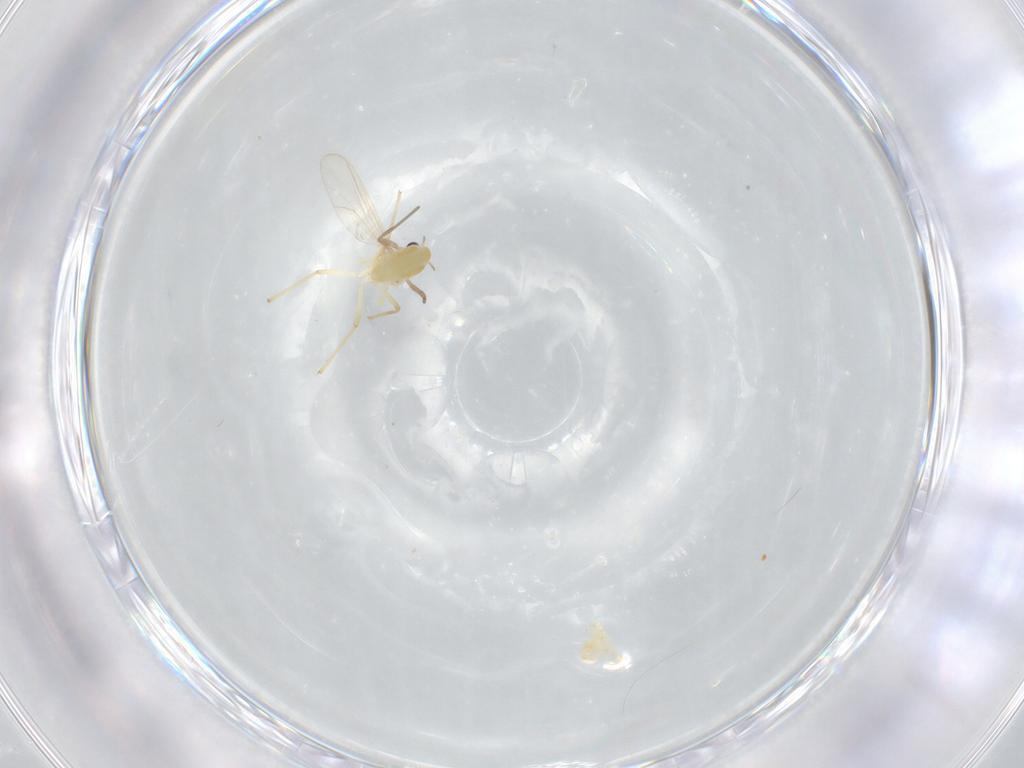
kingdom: Animalia
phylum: Arthropoda
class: Insecta
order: Diptera
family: Chironomidae
